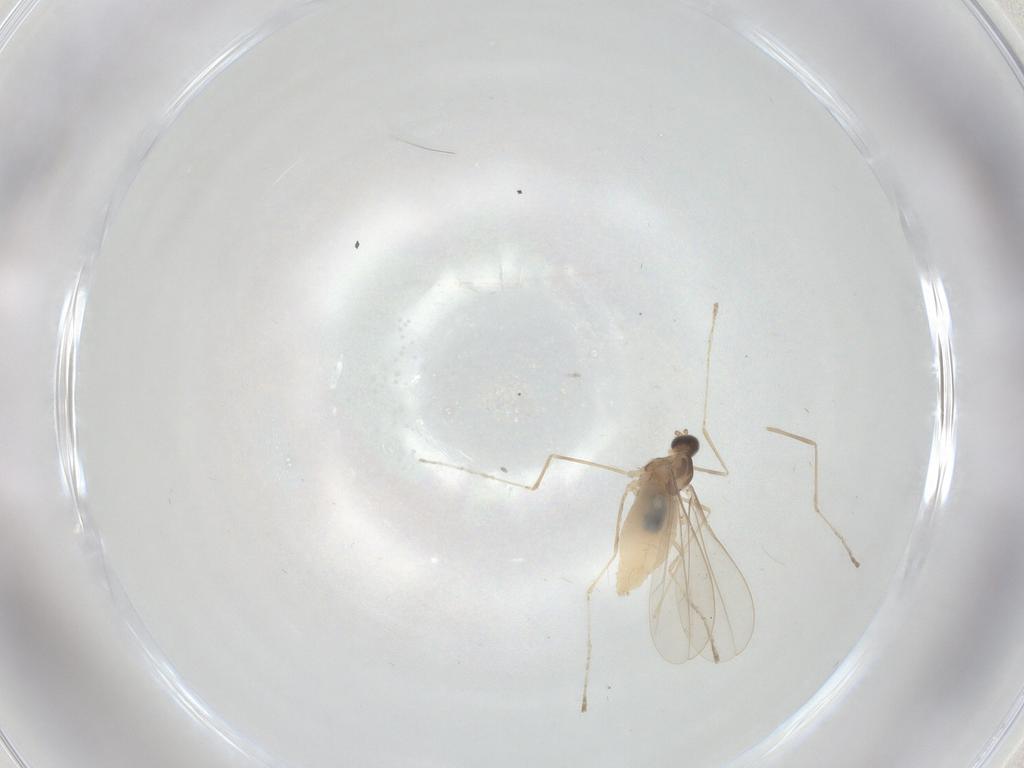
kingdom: Animalia
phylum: Arthropoda
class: Insecta
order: Diptera
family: Cecidomyiidae
